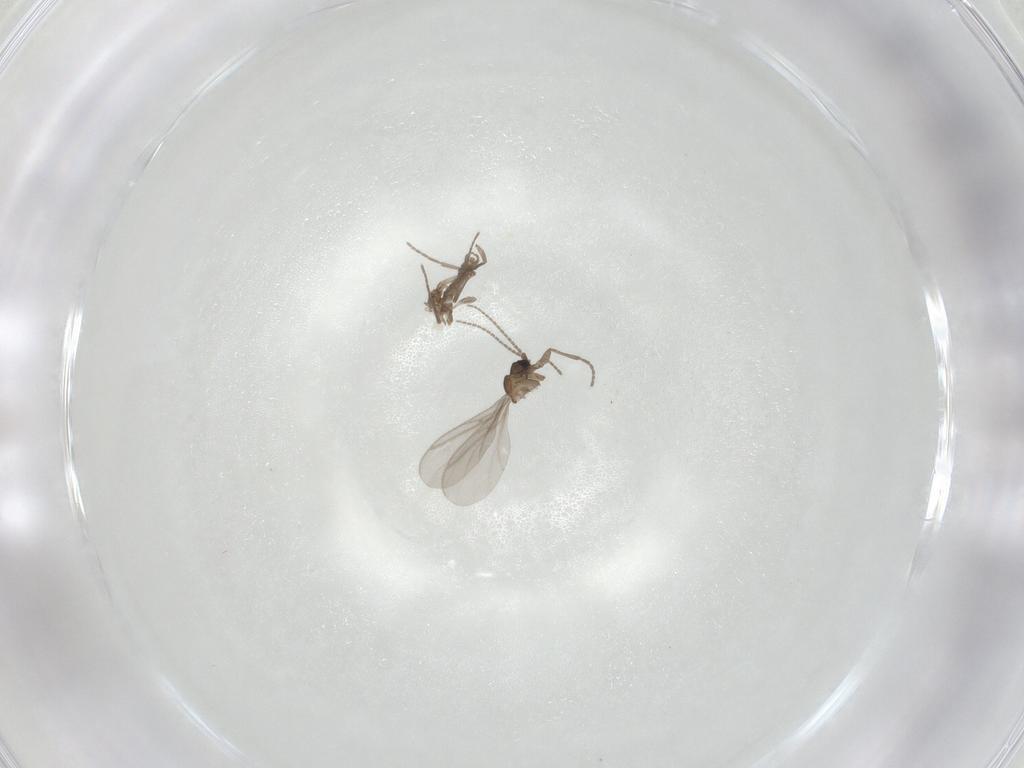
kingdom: Animalia
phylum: Arthropoda
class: Insecta
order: Diptera
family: Sciaridae
